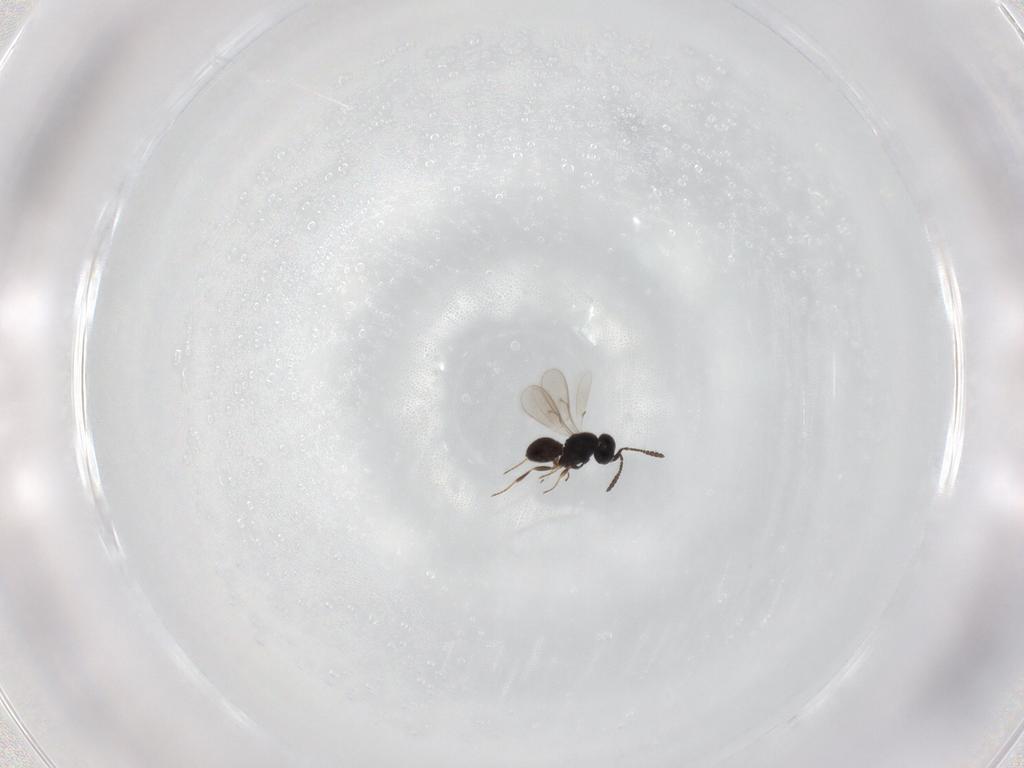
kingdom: Animalia
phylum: Arthropoda
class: Insecta
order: Hymenoptera
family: Scelionidae
